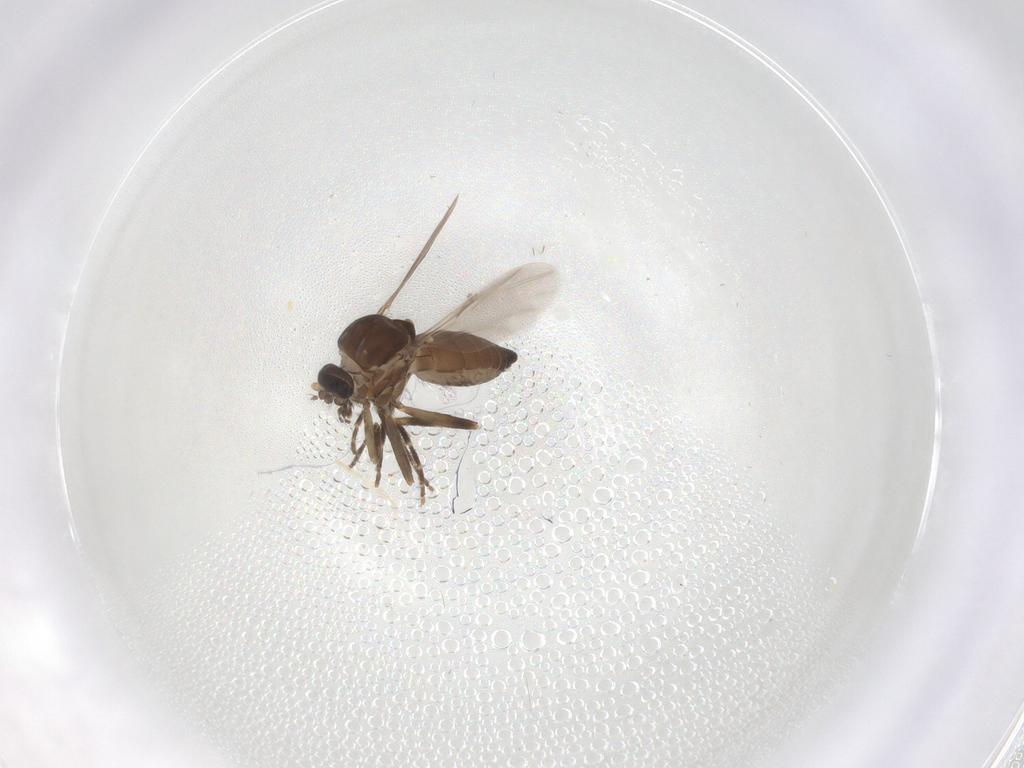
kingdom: Animalia
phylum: Arthropoda
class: Insecta
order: Diptera
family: Ceratopogonidae
